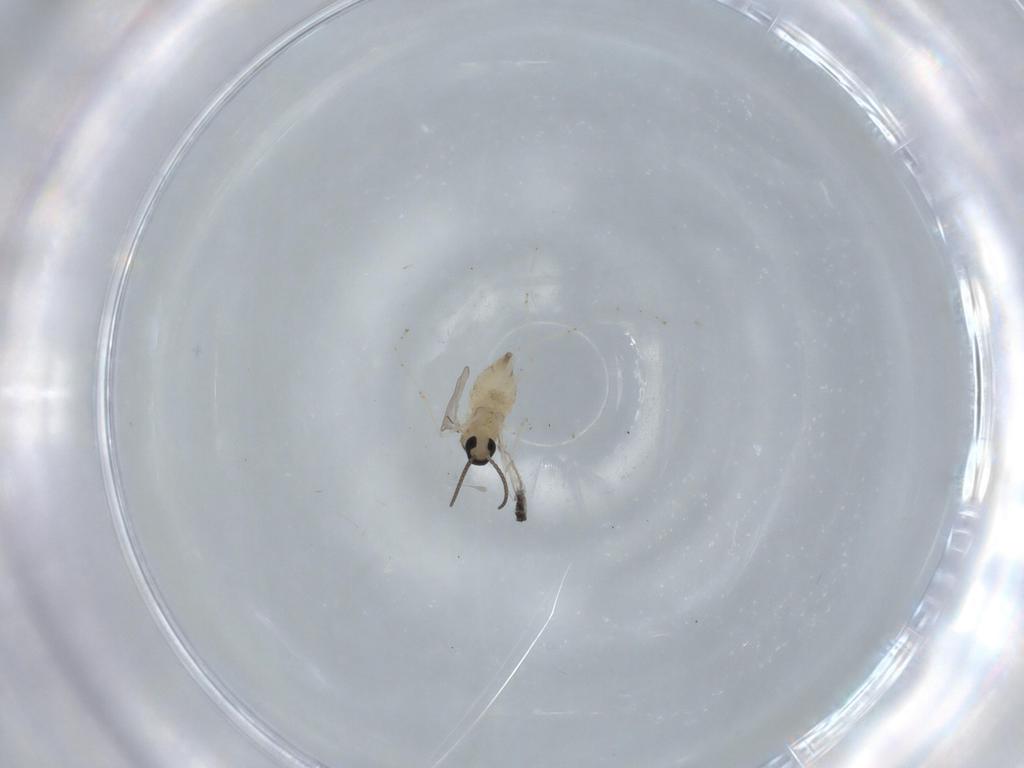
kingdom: Animalia
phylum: Arthropoda
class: Insecta
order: Diptera
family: Cecidomyiidae
